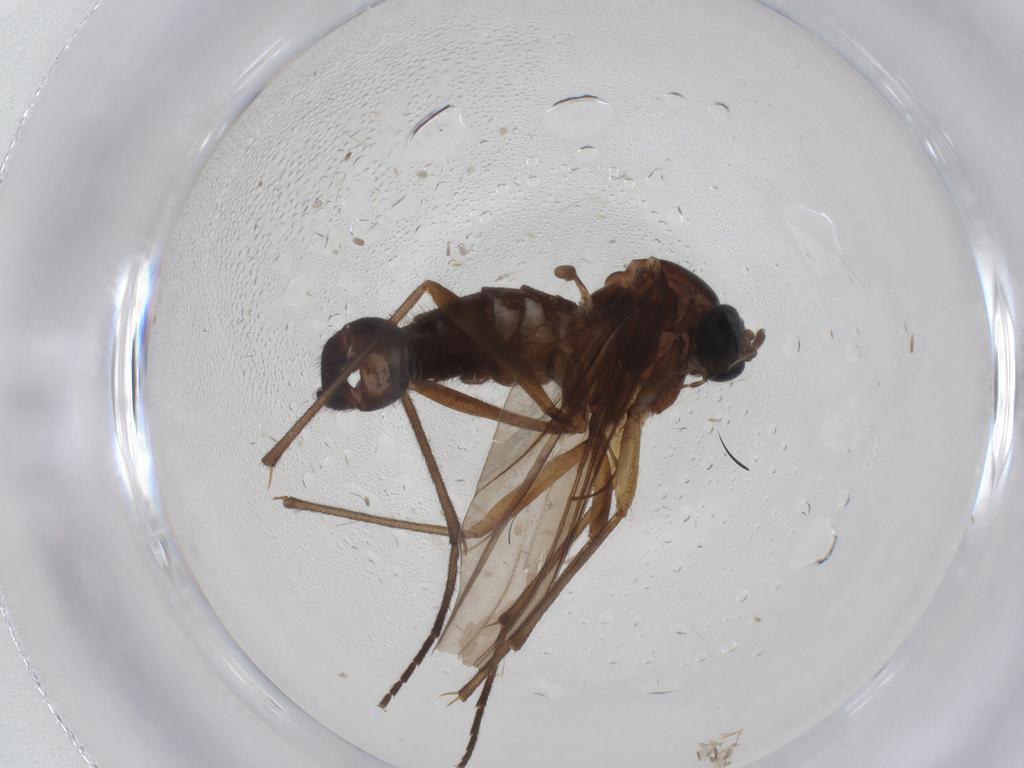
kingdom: Animalia
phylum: Arthropoda
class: Insecta
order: Diptera
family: Sciaridae
